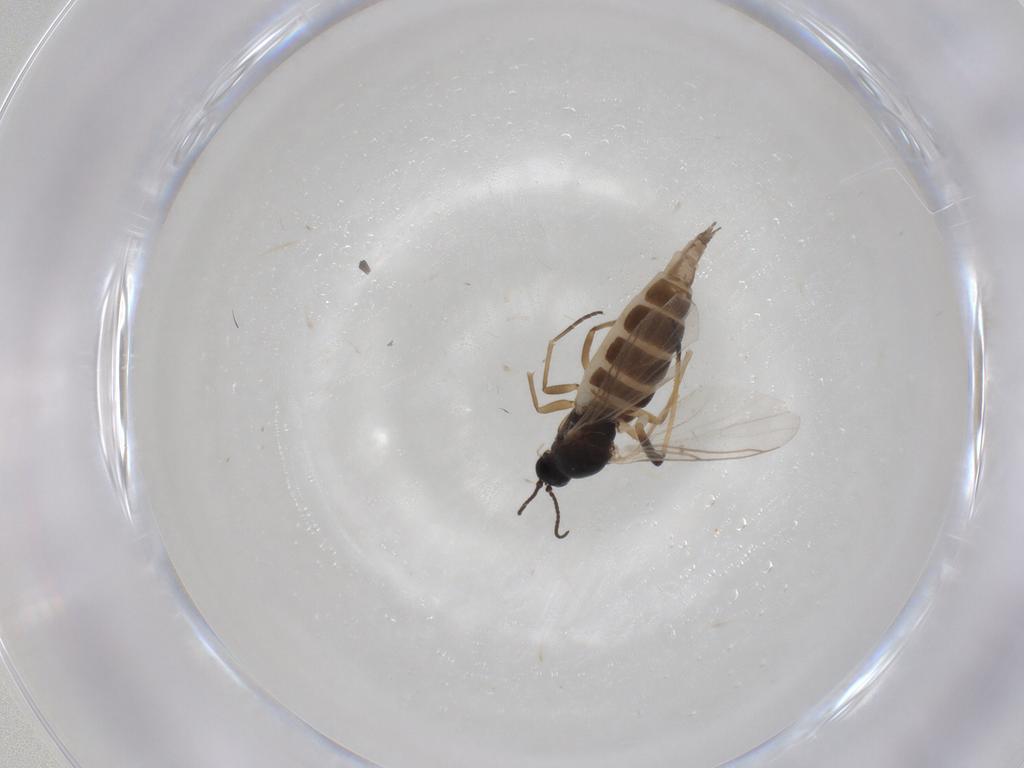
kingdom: Animalia
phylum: Arthropoda
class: Insecta
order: Diptera
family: Sciaridae
